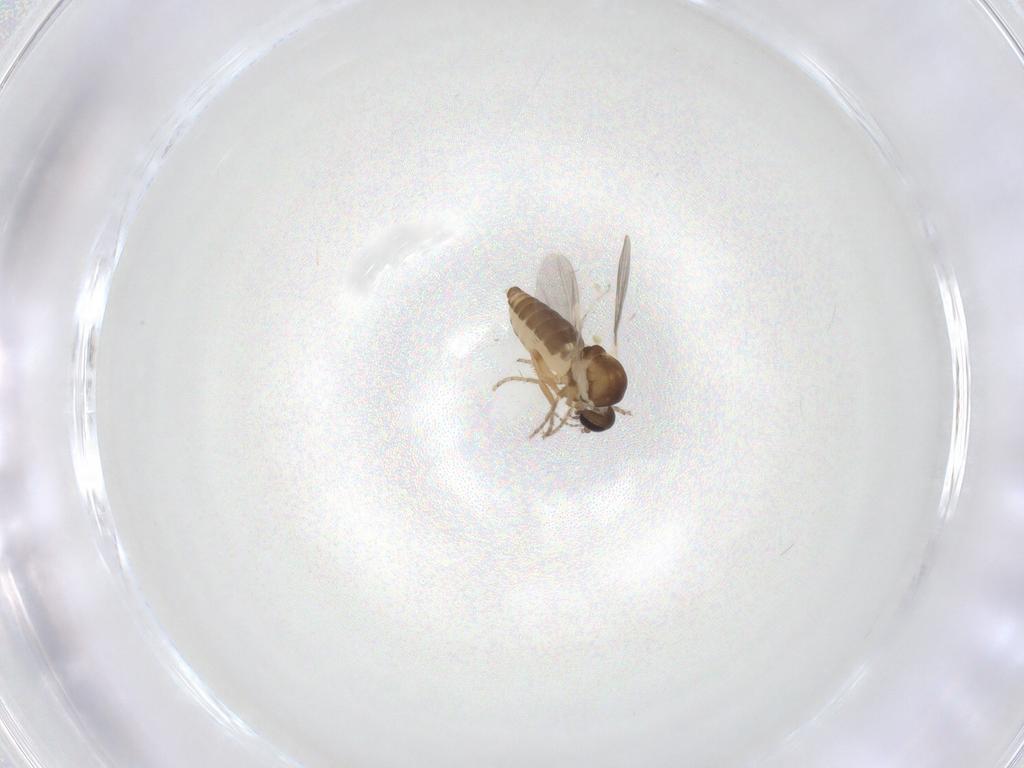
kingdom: Animalia
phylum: Arthropoda
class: Insecta
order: Diptera
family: Ceratopogonidae
